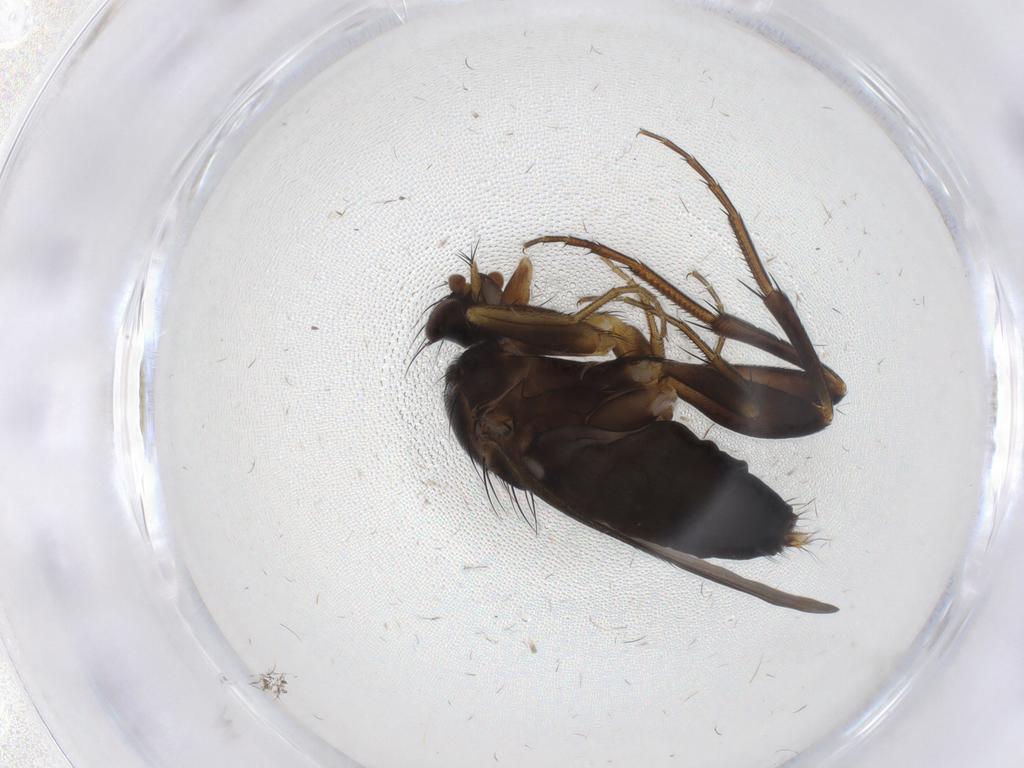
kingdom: Animalia
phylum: Arthropoda
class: Insecta
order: Diptera
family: Phoridae
